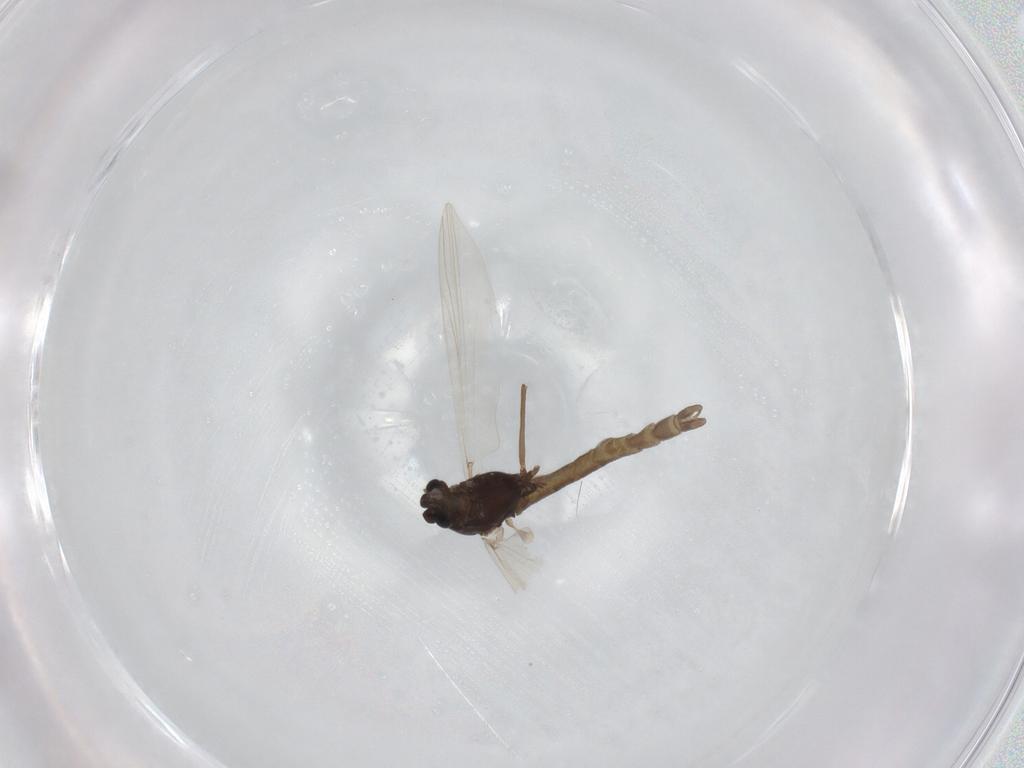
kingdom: Animalia
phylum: Arthropoda
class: Insecta
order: Diptera
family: Chironomidae
